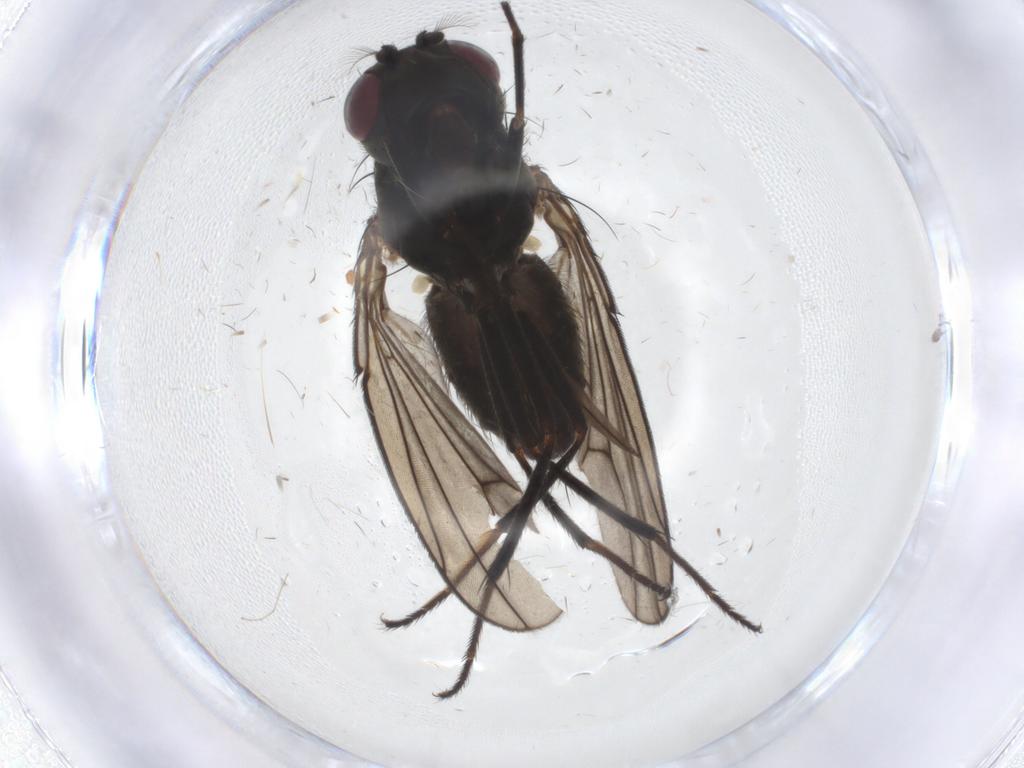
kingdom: Animalia
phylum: Arthropoda
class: Insecta
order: Diptera
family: Ephydridae
